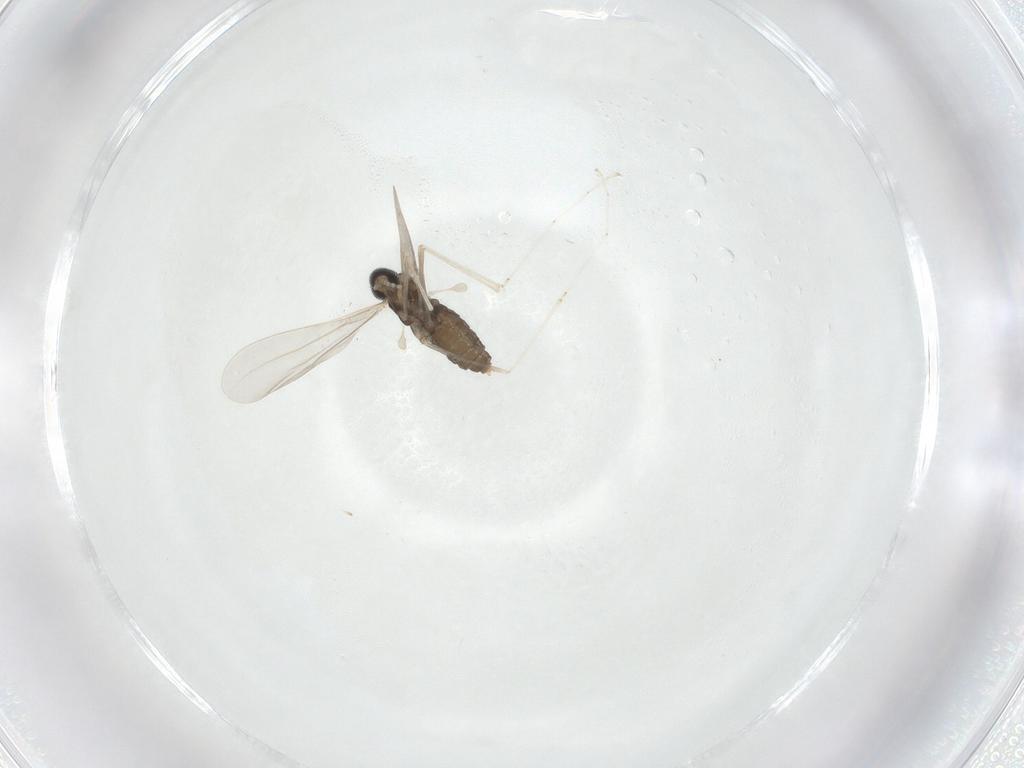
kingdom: Animalia
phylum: Arthropoda
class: Insecta
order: Diptera
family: Cecidomyiidae
